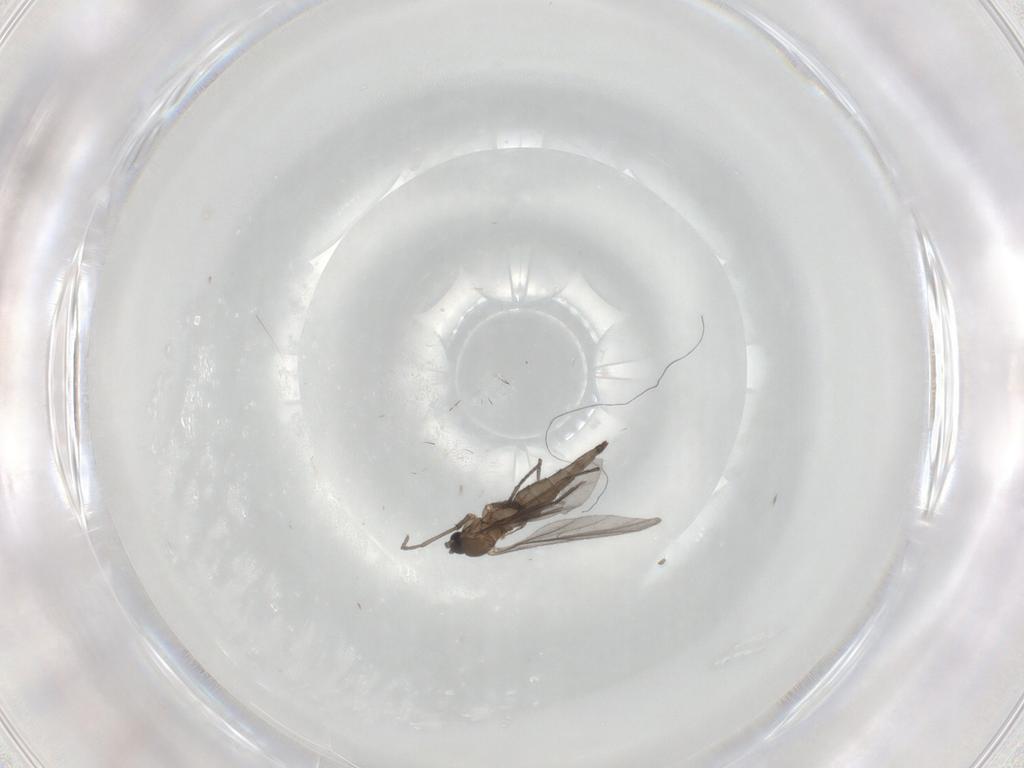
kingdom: Animalia
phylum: Arthropoda
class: Insecta
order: Diptera
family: Sciaridae
